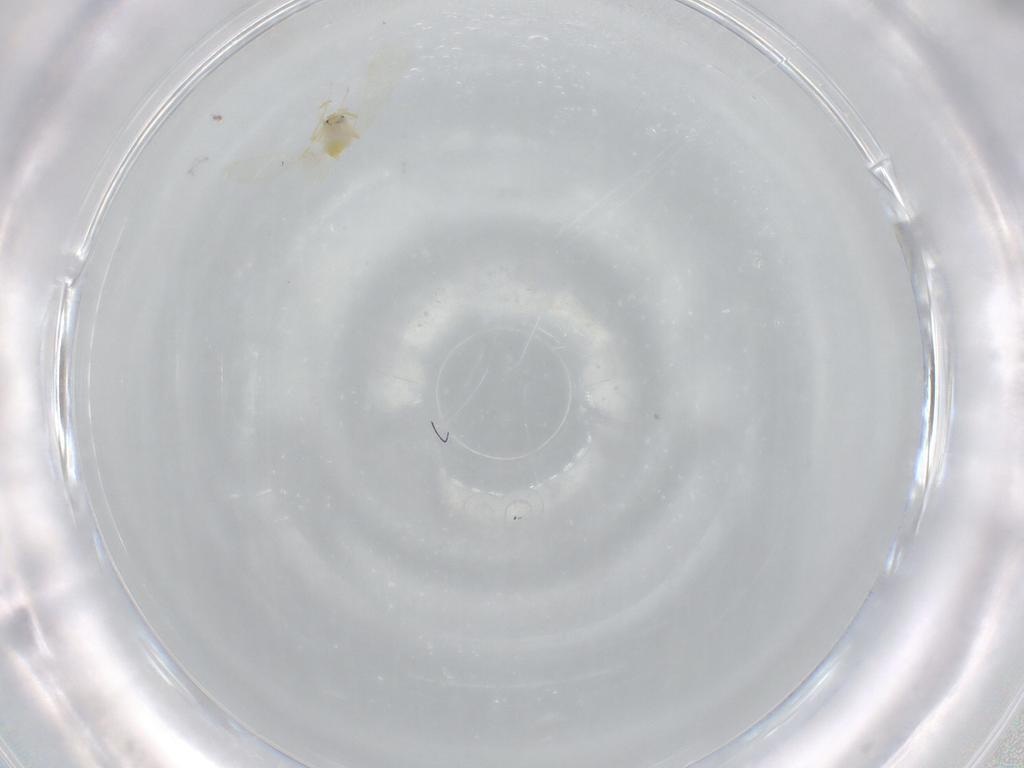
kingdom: Animalia
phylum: Arthropoda
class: Insecta
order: Hemiptera
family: Aleyrodidae
